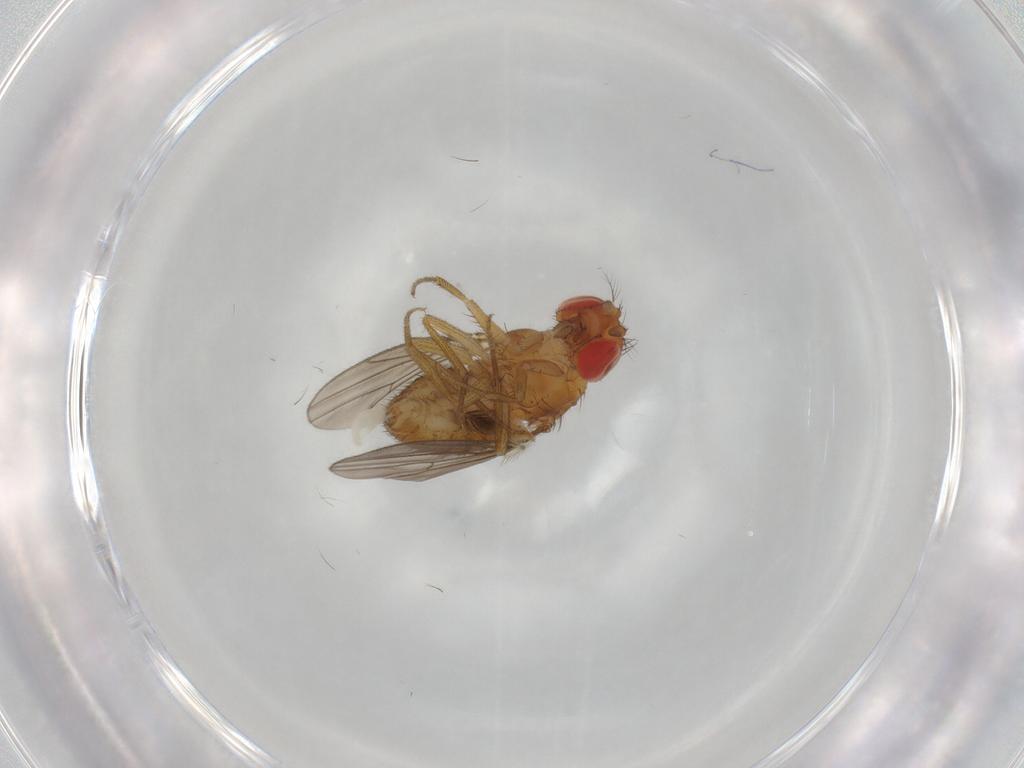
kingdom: Animalia
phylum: Arthropoda
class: Insecta
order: Diptera
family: Drosophilidae
